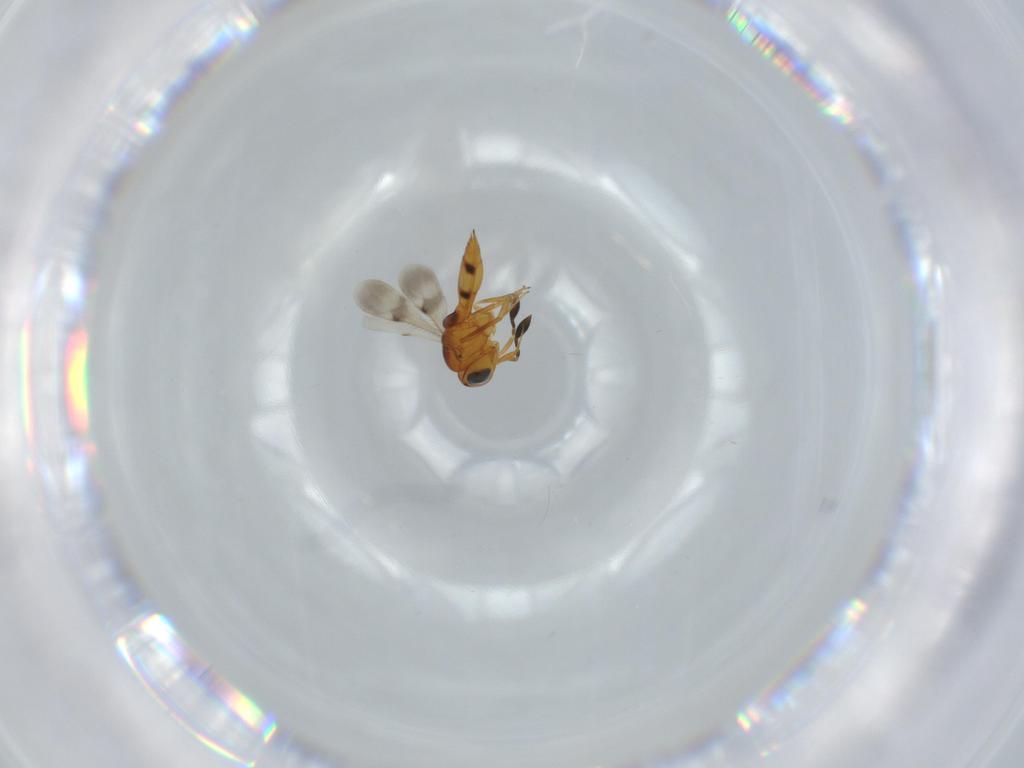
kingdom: Animalia
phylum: Arthropoda
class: Insecta
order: Hymenoptera
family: Scelionidae
